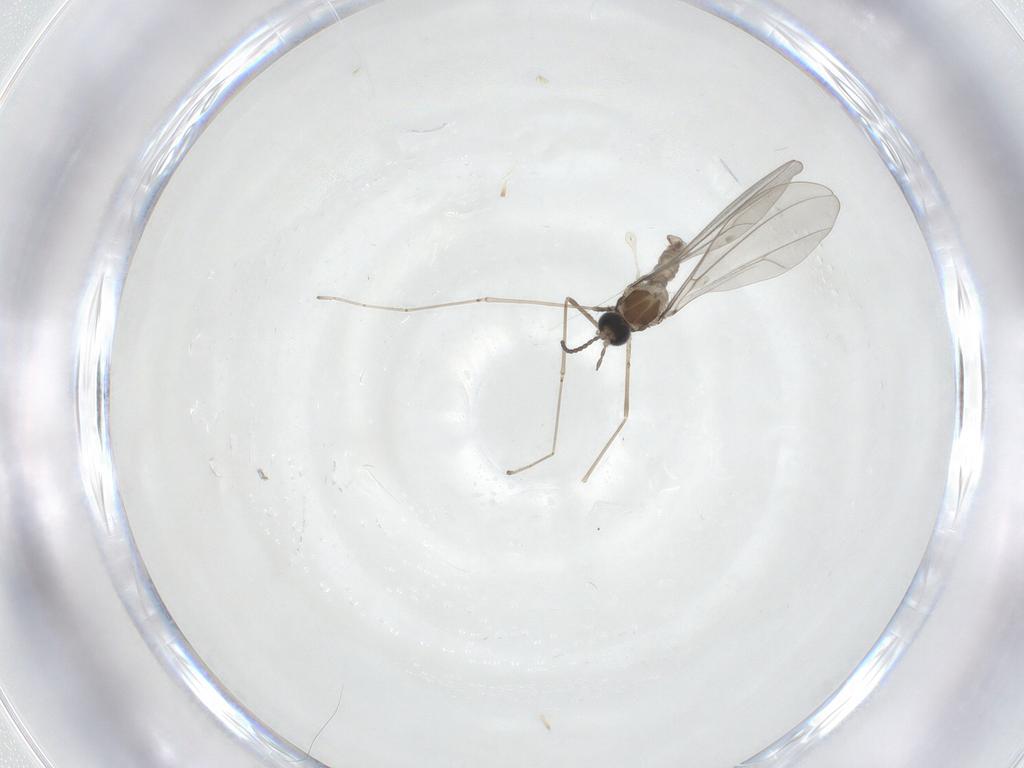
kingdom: Animalia
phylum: Arthropoda
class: Insecta
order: Diptera
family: Cecidomyiidae
